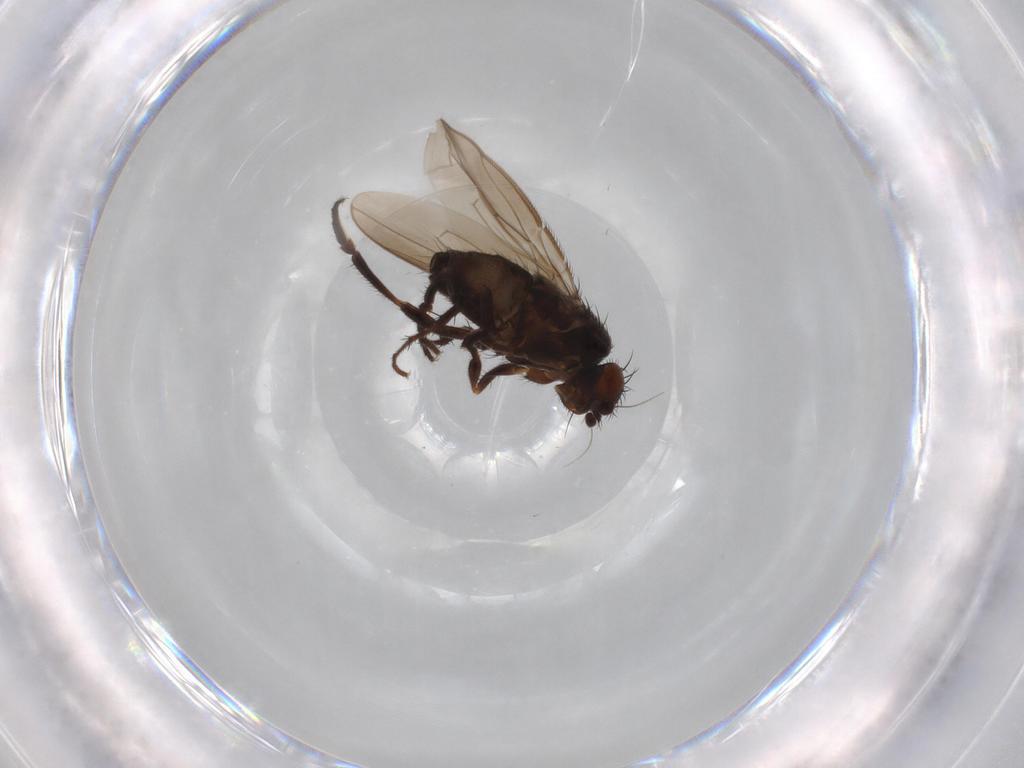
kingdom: Animalia
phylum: Arthropoda
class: Insecta
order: Diptera
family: Sphaeroceridae
